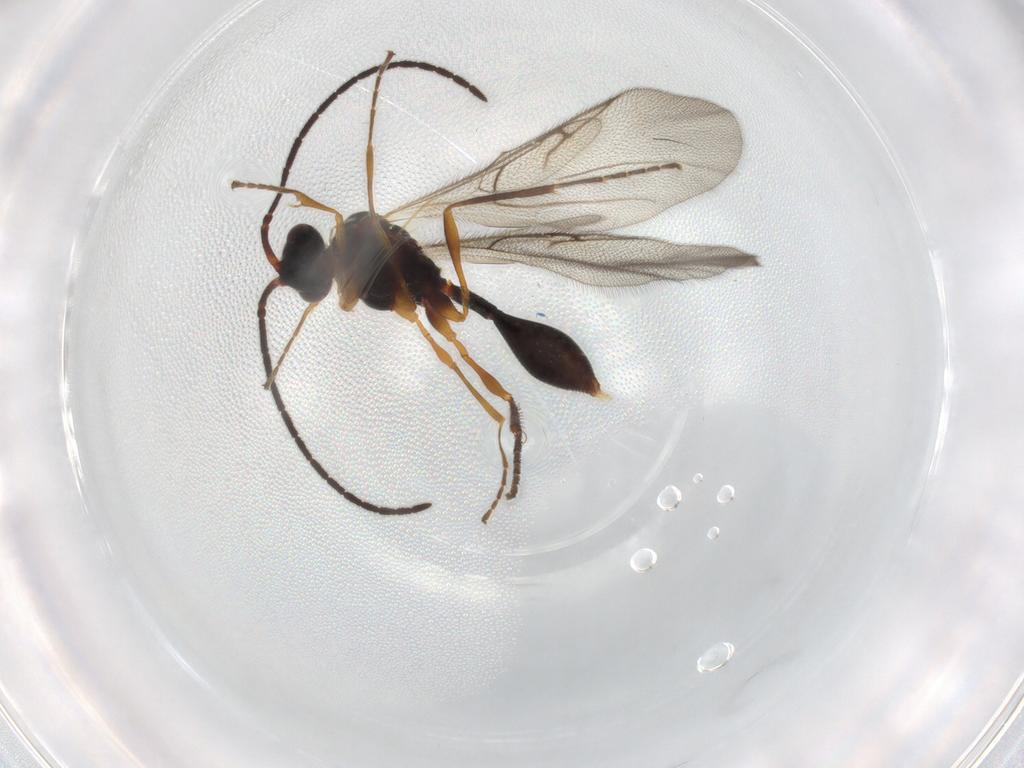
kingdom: Animalia
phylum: Arthropoda
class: Insecta
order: Hymenoptera
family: Diapriidae
